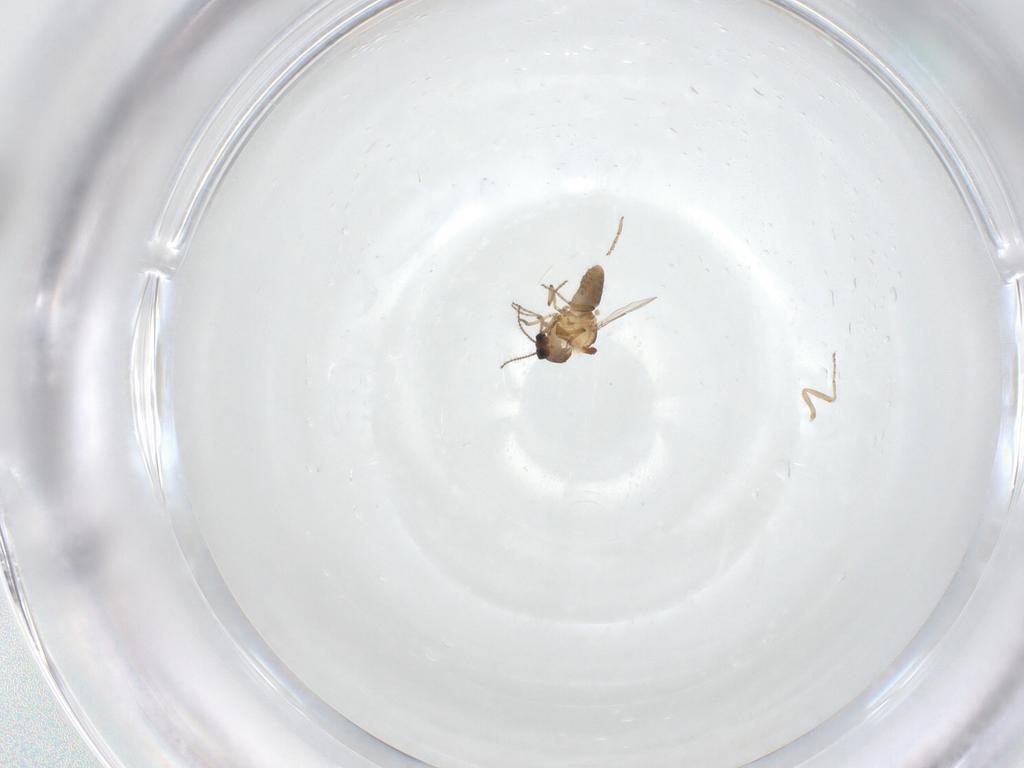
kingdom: Animalia
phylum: Arthropoda
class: Insecta
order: Diptera
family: Ceratopogonidae
